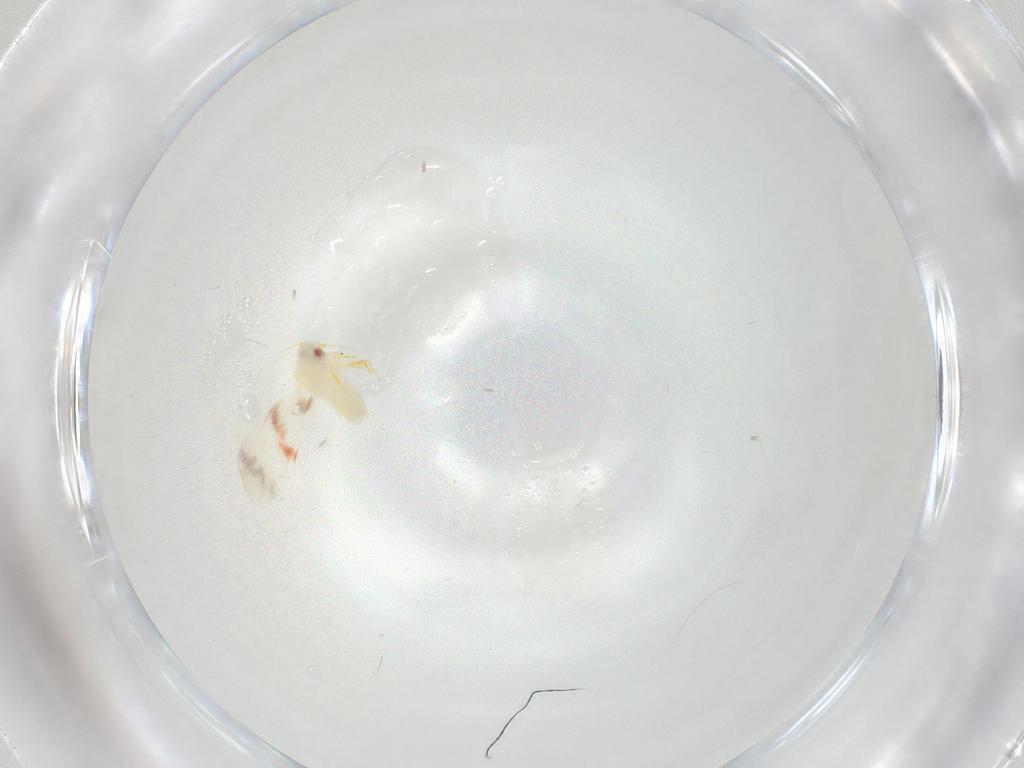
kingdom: Animalia
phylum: Arthropoda
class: Insecta
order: Hemiptera
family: Aleyrodidae
